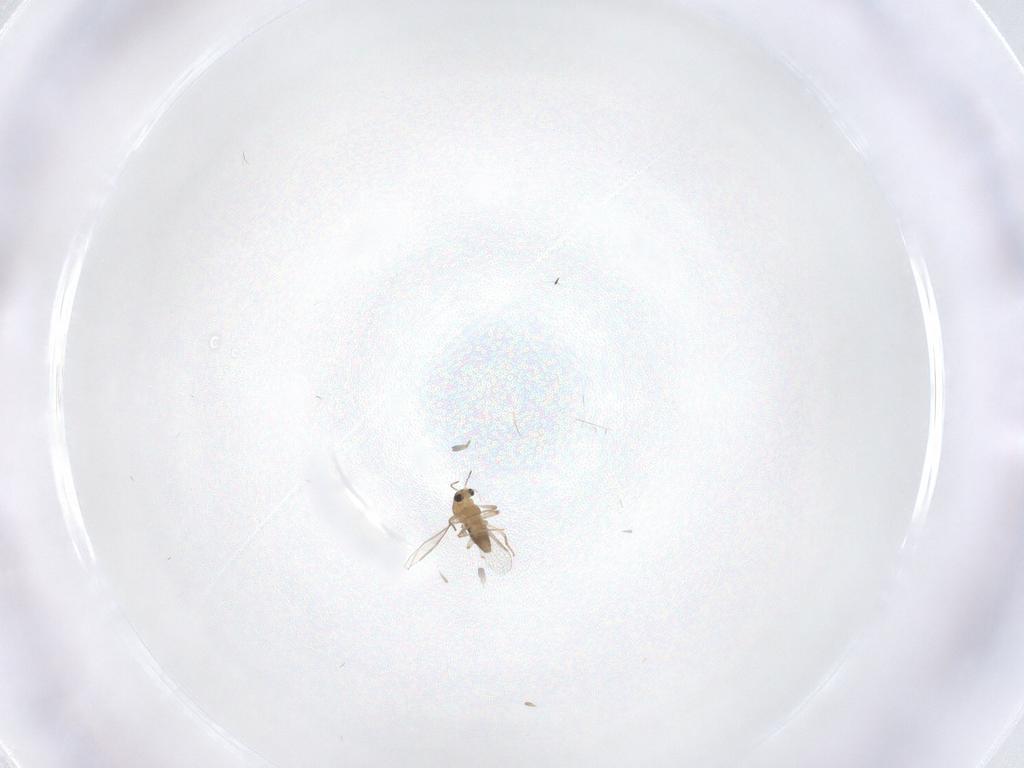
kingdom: Animalia
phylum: Arthropoda
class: Insecta
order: Diptera
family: Chironomidae
